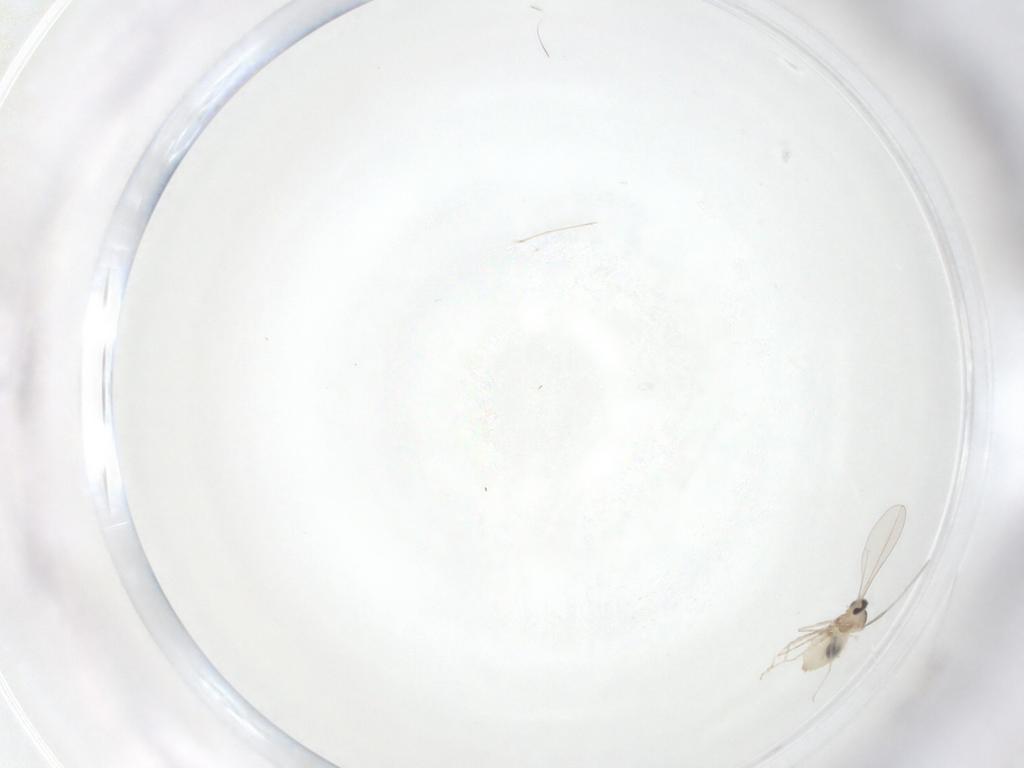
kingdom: Animalia
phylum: Arthropoda
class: Insecta
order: Diptera
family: Cecidomyiidae
